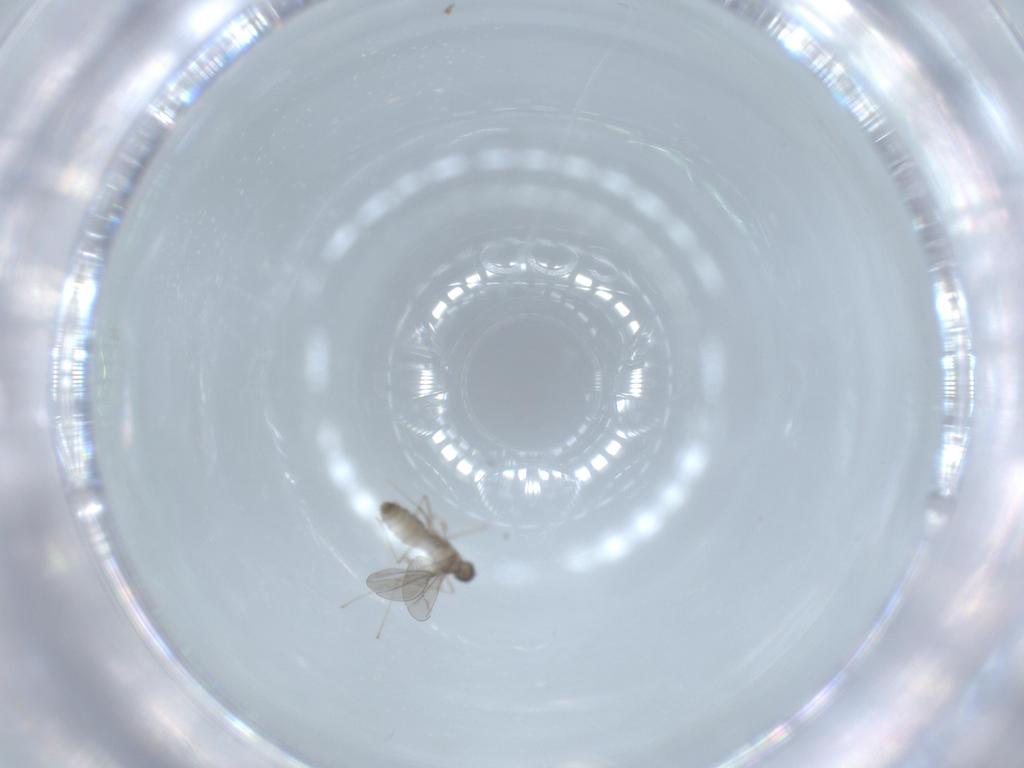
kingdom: Animalia
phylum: Arthropoda
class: Insecta
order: Diptera
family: Cecidomyiidae
